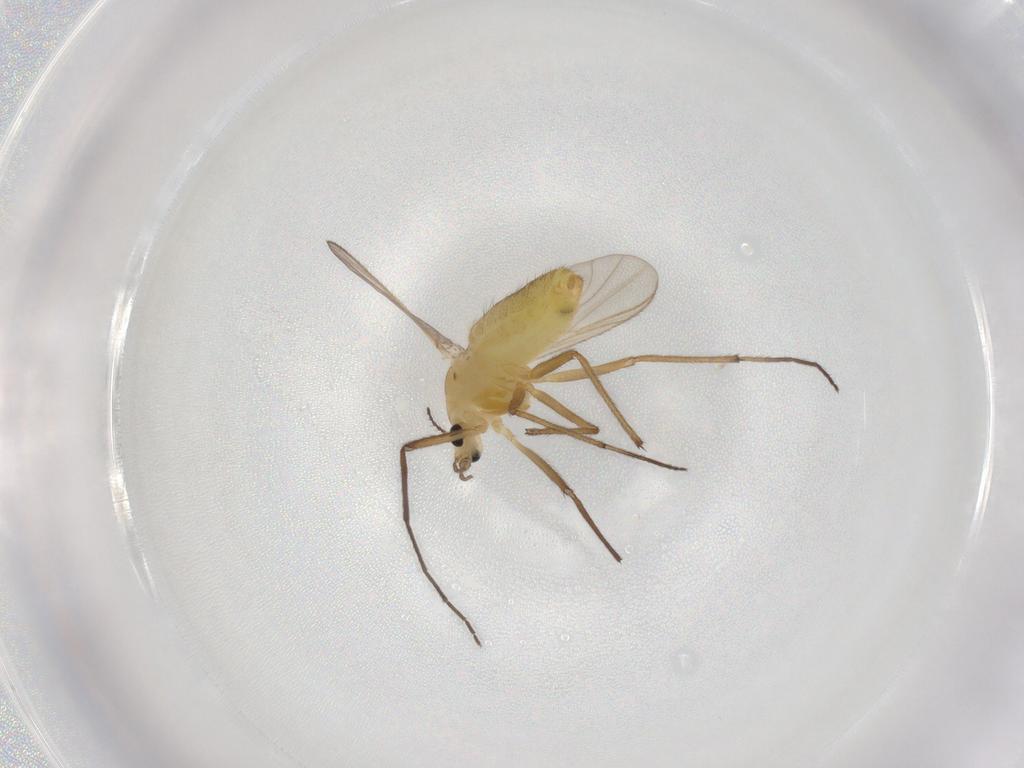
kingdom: Animalia
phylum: Arthropoda
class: Insecta
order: Diptera
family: Chironomidae
